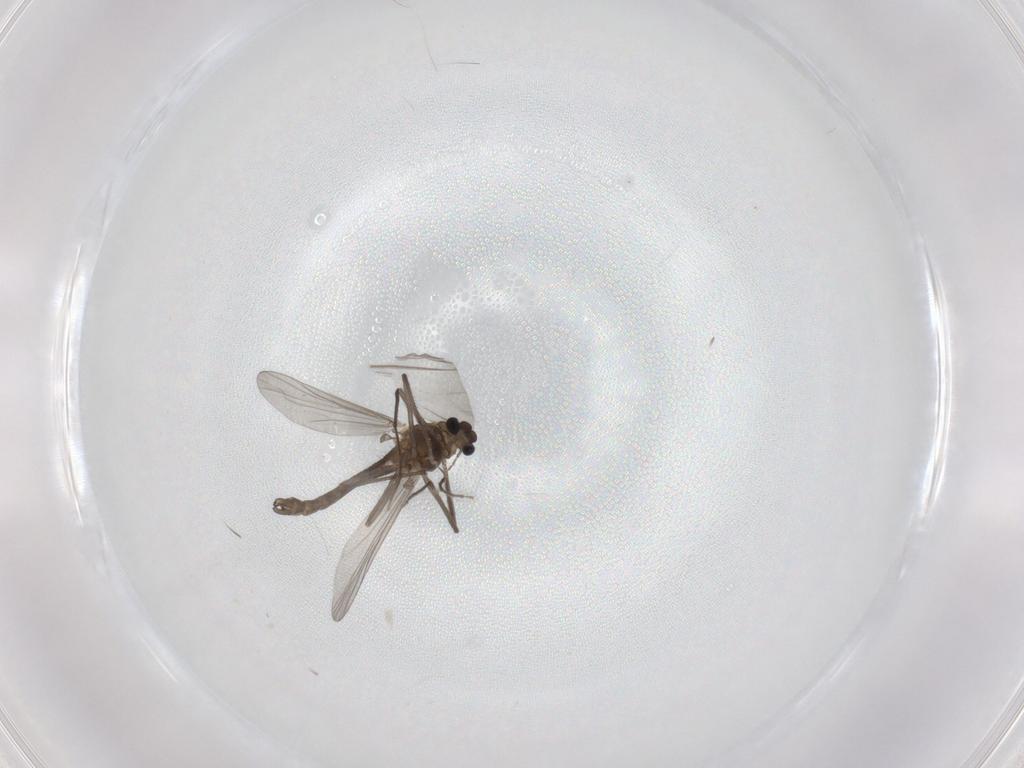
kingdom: Animalia
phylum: Arthropoda
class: Insecta
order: Diptera
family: Chironomidae
